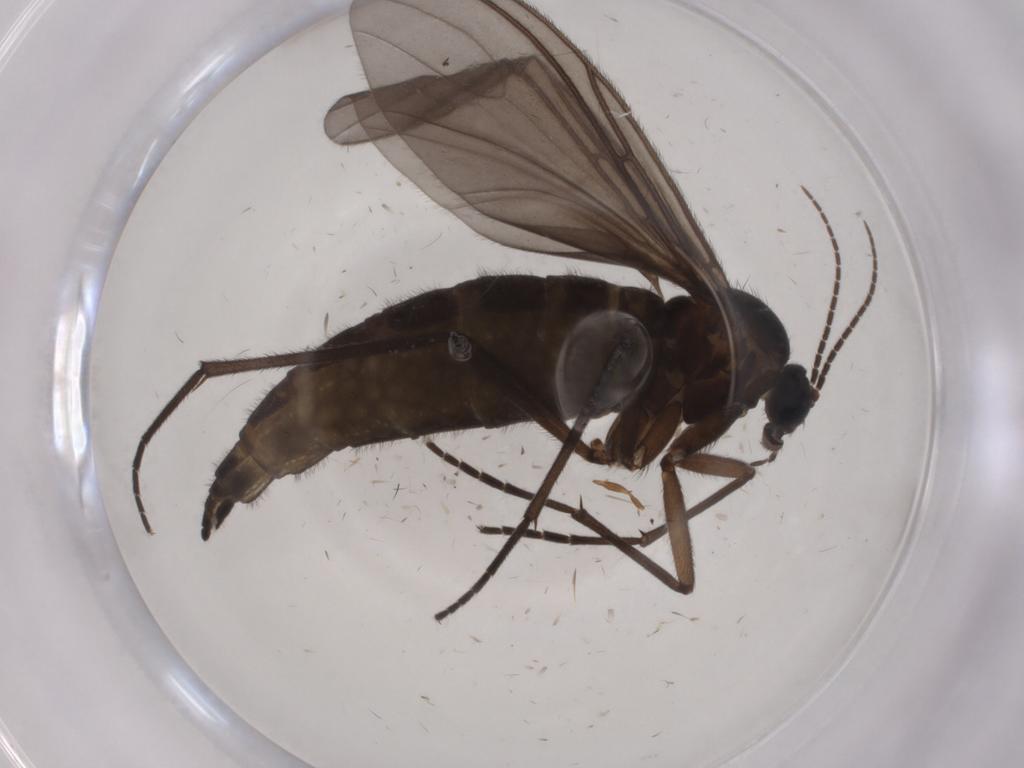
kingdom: Animalia
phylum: Arthropoda
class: Insecta
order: Diptera
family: Sciaridae
